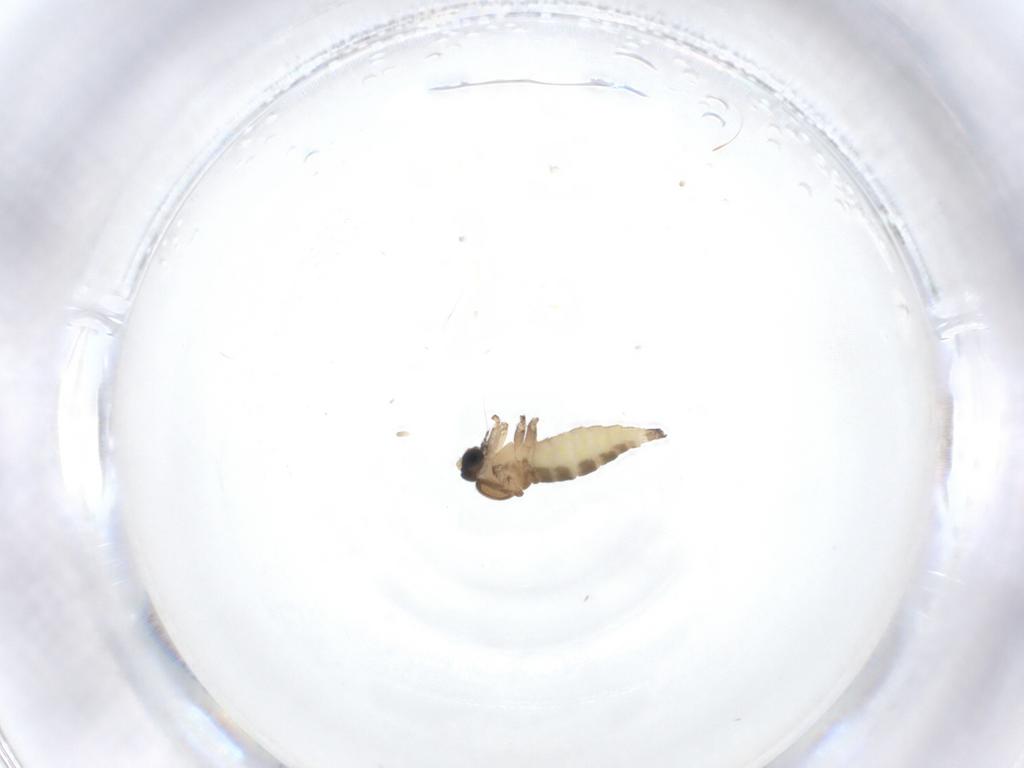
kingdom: Animalia
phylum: Arthropoda
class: Insecta
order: Diptera
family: Sciaridae
